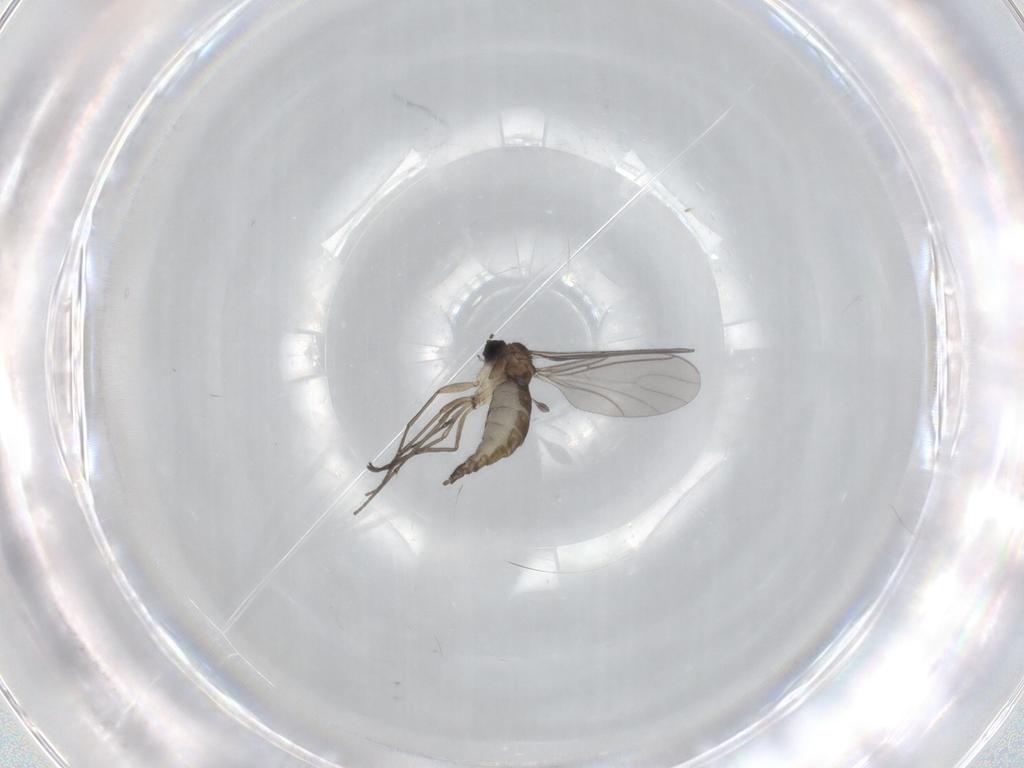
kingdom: Animalia
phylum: Arthropoda
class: Insecta
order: Diptera
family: Sciaridae
